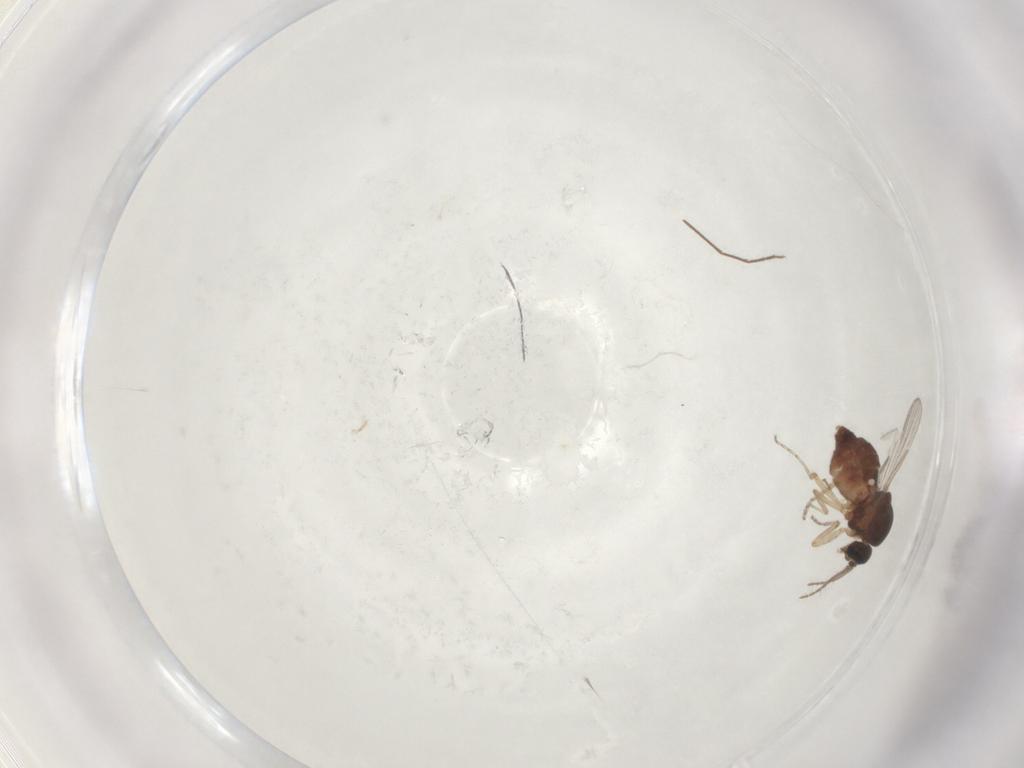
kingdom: Animalia
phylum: Arthropoda
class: Insecta
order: Diptera
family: Ceratopogonidae
